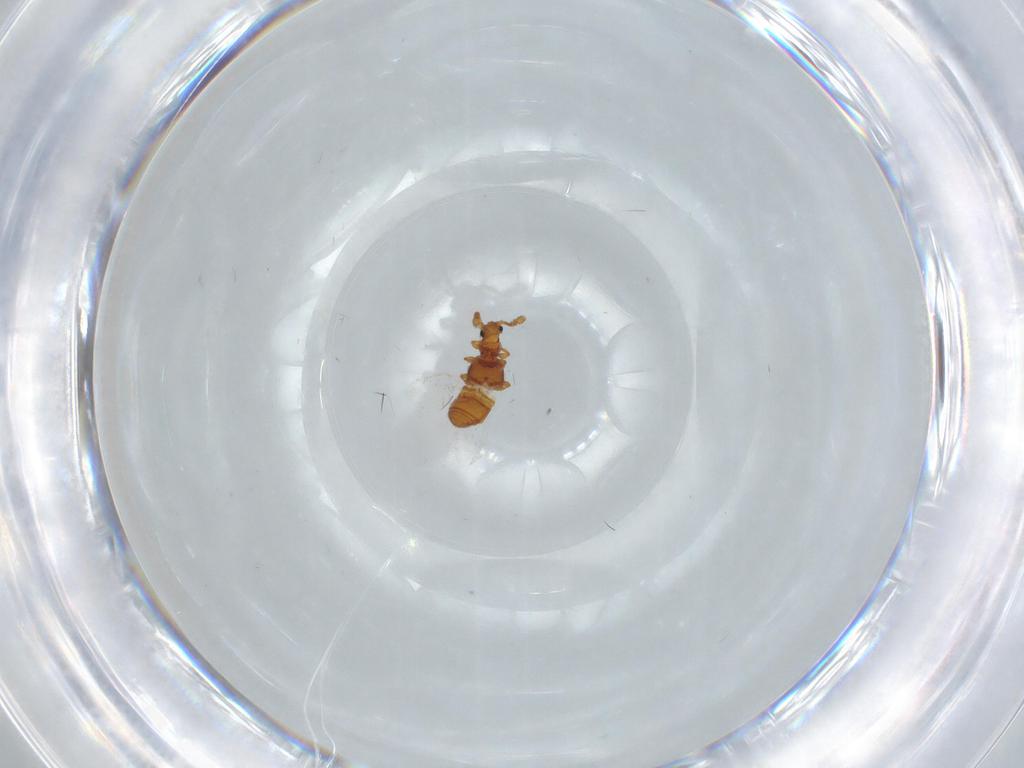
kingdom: Animalia
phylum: Arthropoda
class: Insecta
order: Coleoptera
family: Staphylinidae
